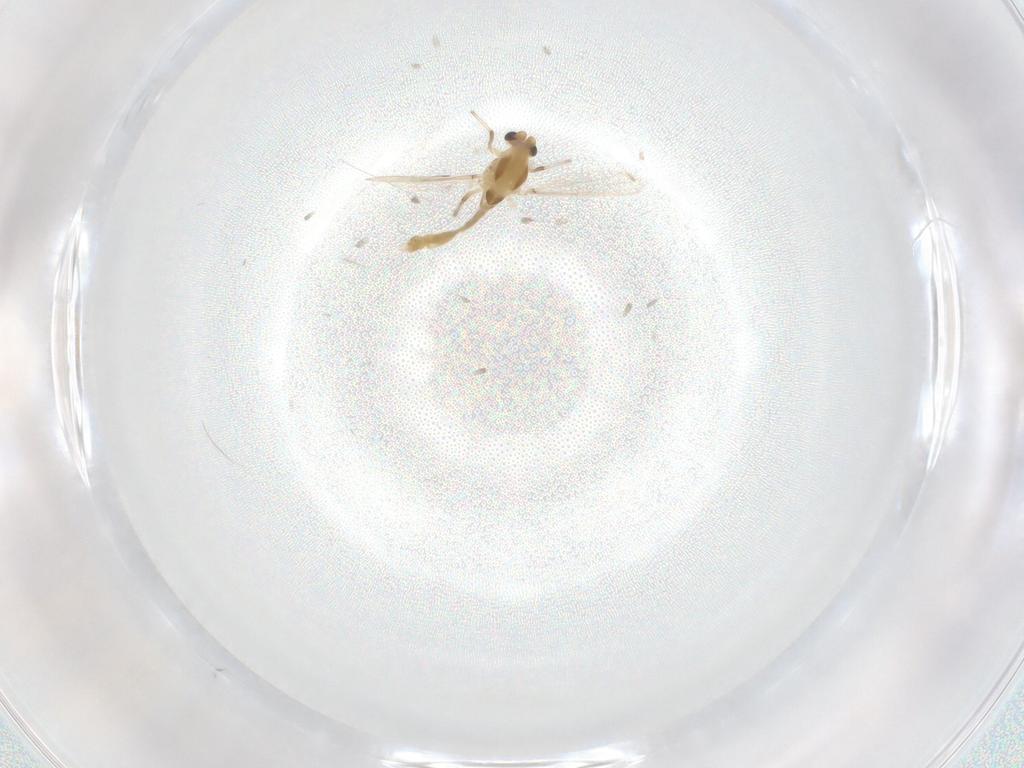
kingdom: Animalia
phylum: Arthropoda
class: Insecta
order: Diptera
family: Chironomidae
